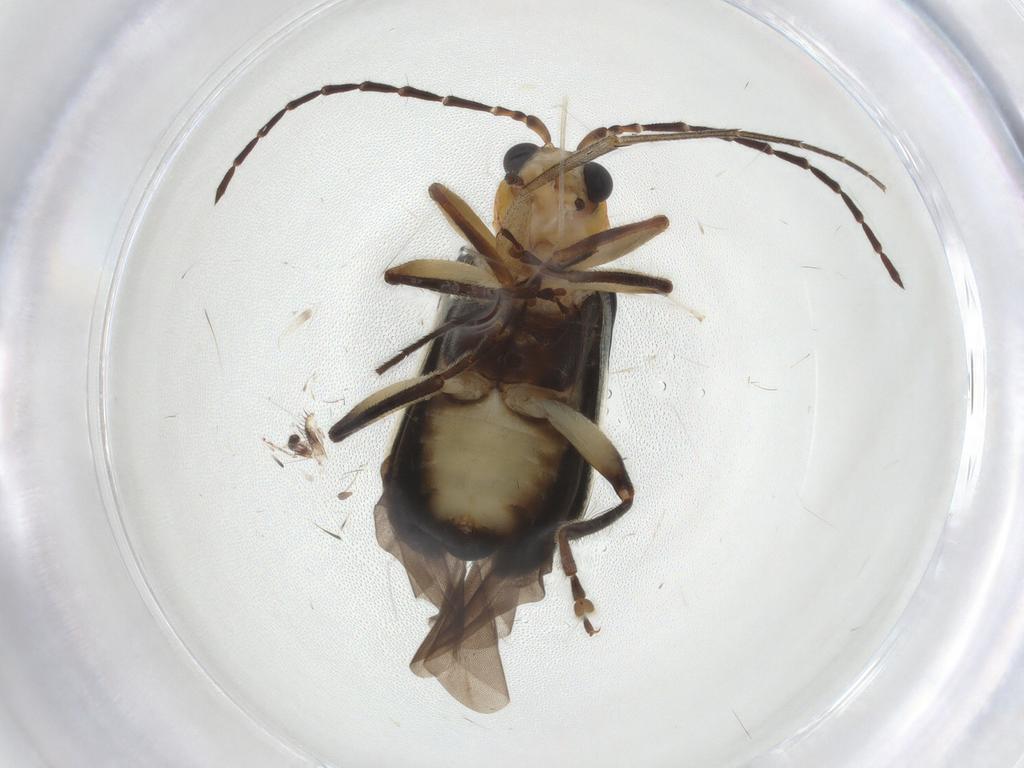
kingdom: Animalia
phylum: Arthropoda
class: Insecta
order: Coleoptera
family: Chrysomelidae
